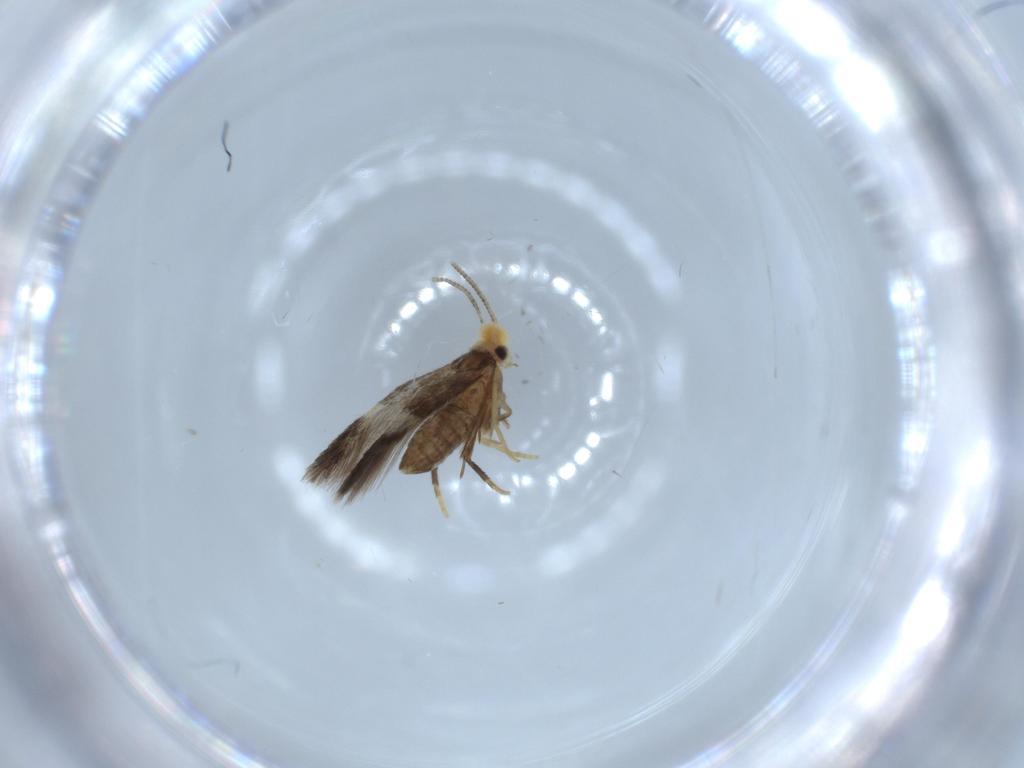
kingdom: Animalia
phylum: Arthropoda
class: Insecta
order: Lepidoptera
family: Nepticulidae
